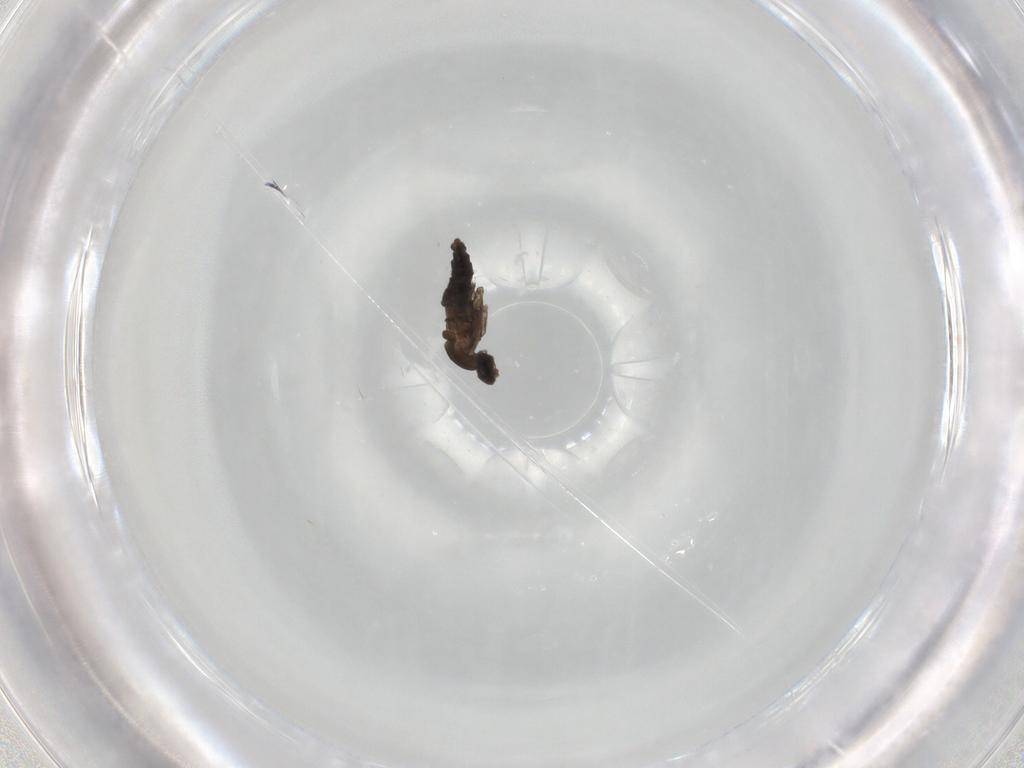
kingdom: Animalia
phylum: Arthropoda
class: Insecta
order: Diptera
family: Cecidomyiidae
